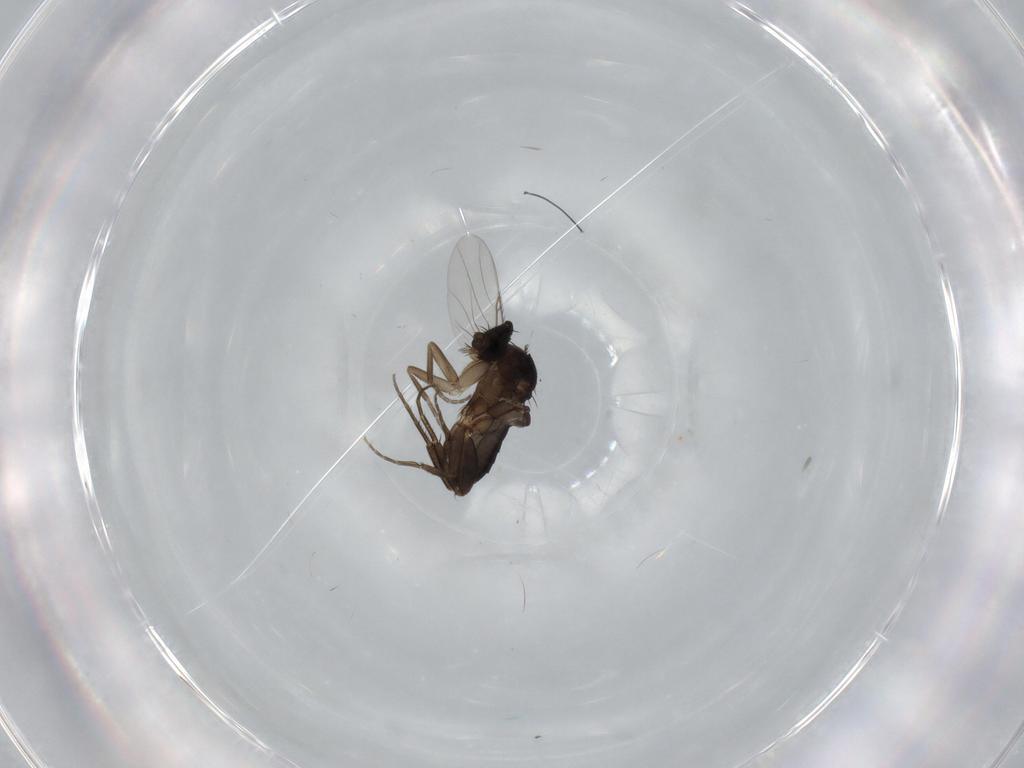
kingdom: Animalia
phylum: Arthropoda
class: Insecta
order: Diptera
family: Phoridae
